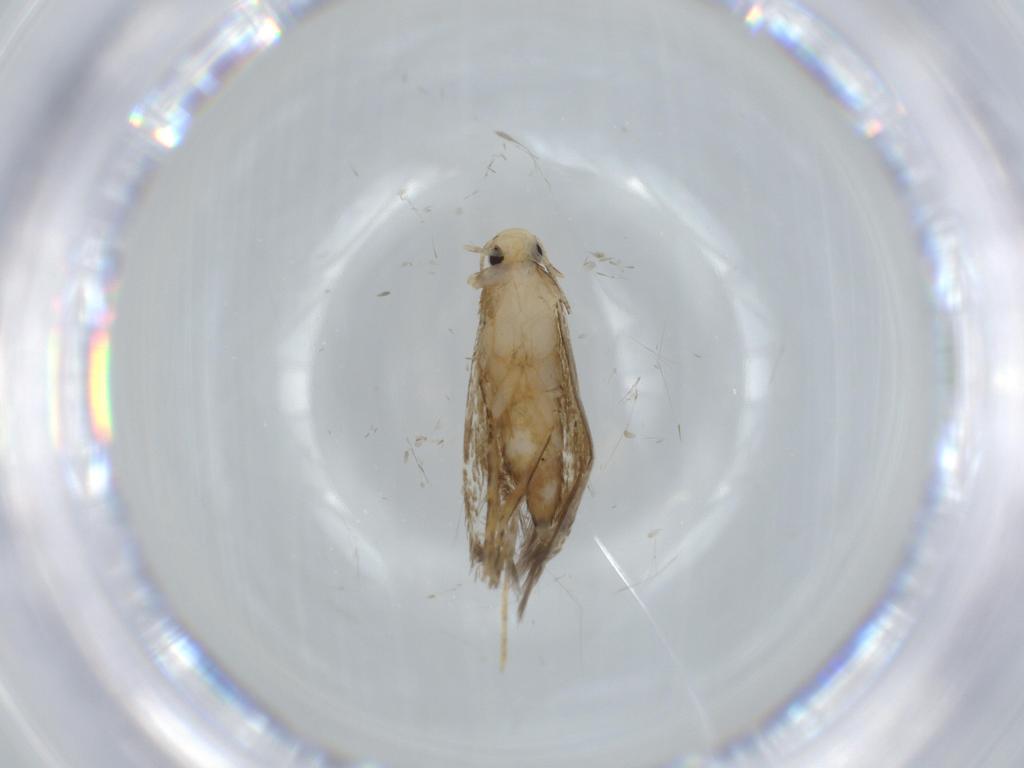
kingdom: Animalia
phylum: Arthropoda
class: Insecta
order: Lepidoptera
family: Tineidae
